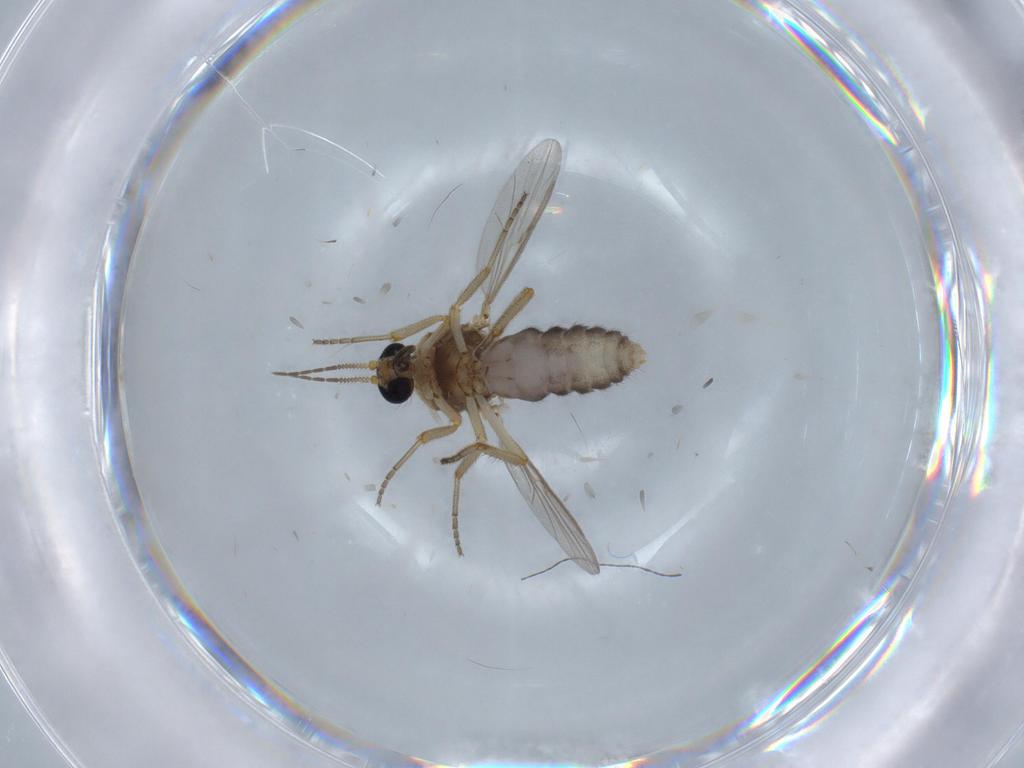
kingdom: Animalia
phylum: Arthropoda
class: Insecta
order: Diptera
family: Ceratopogonidae
